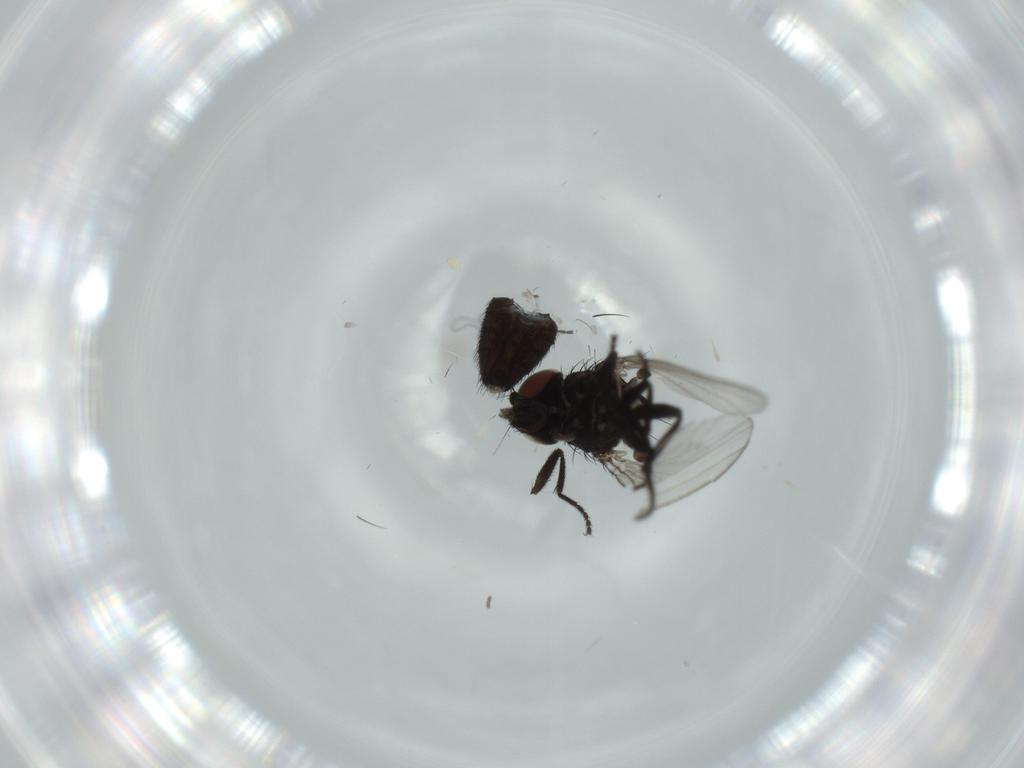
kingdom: Animalia
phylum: Arthropoda
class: Insecta
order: Diptera
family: Milichiidae
